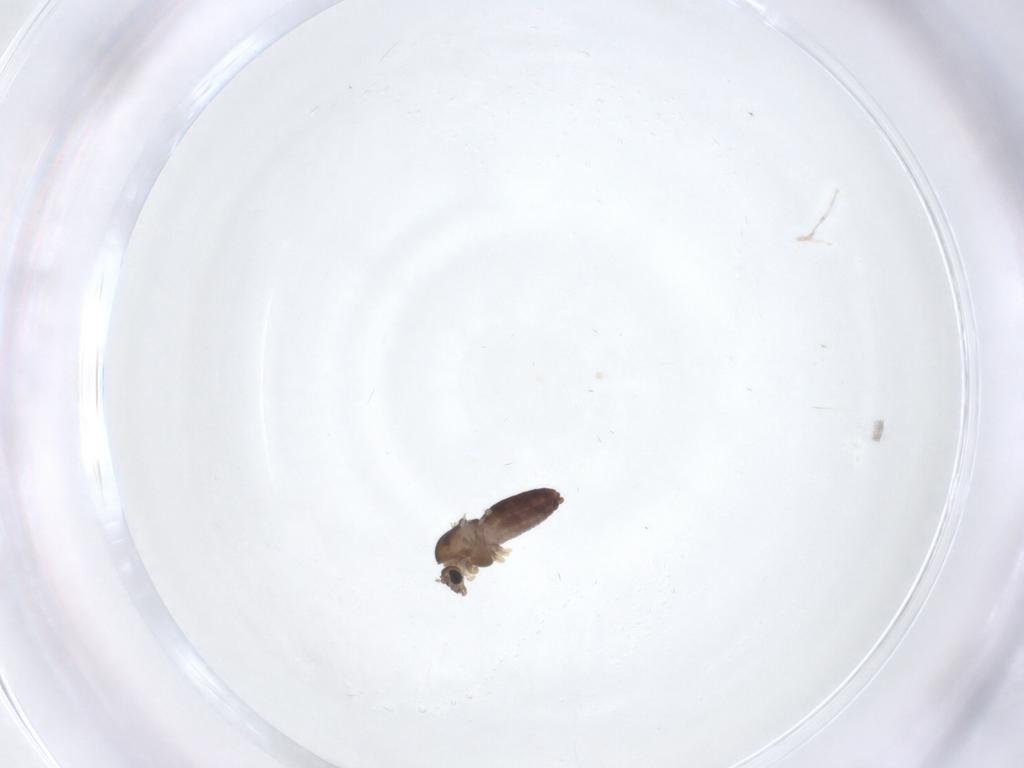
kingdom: Animalia
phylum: Arthropoda
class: Insecta
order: Diptera
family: Chironomidae
